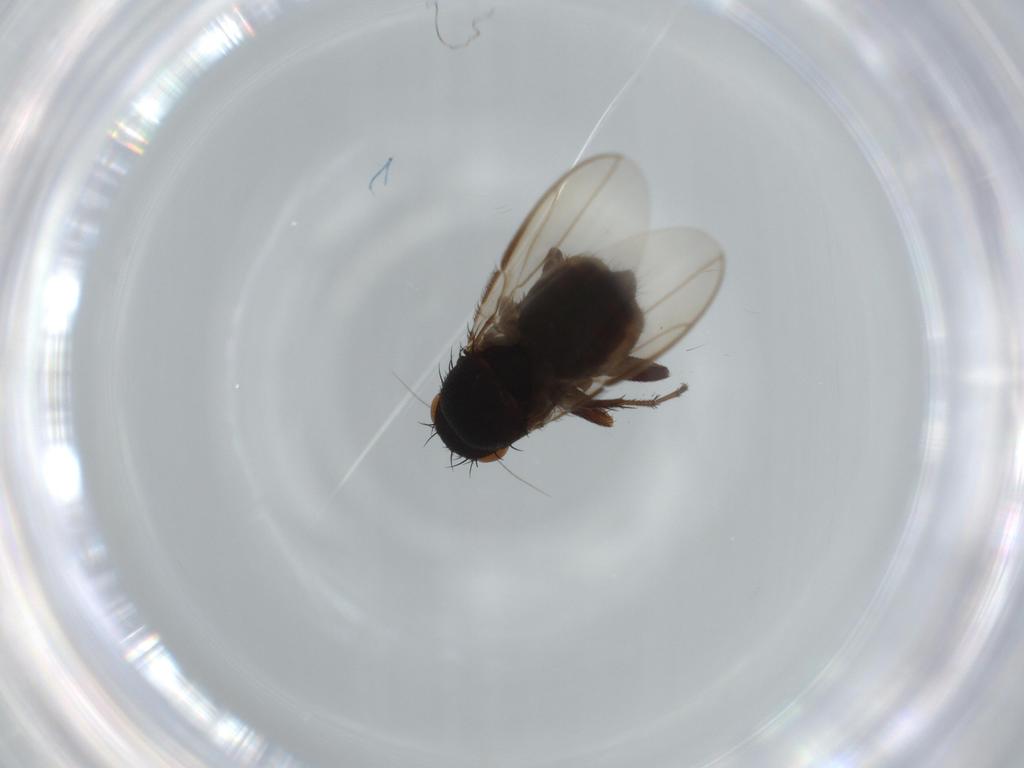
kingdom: Animalia
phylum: Arthropoda
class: Insecta
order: Diptera
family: Sphaeroceridae
